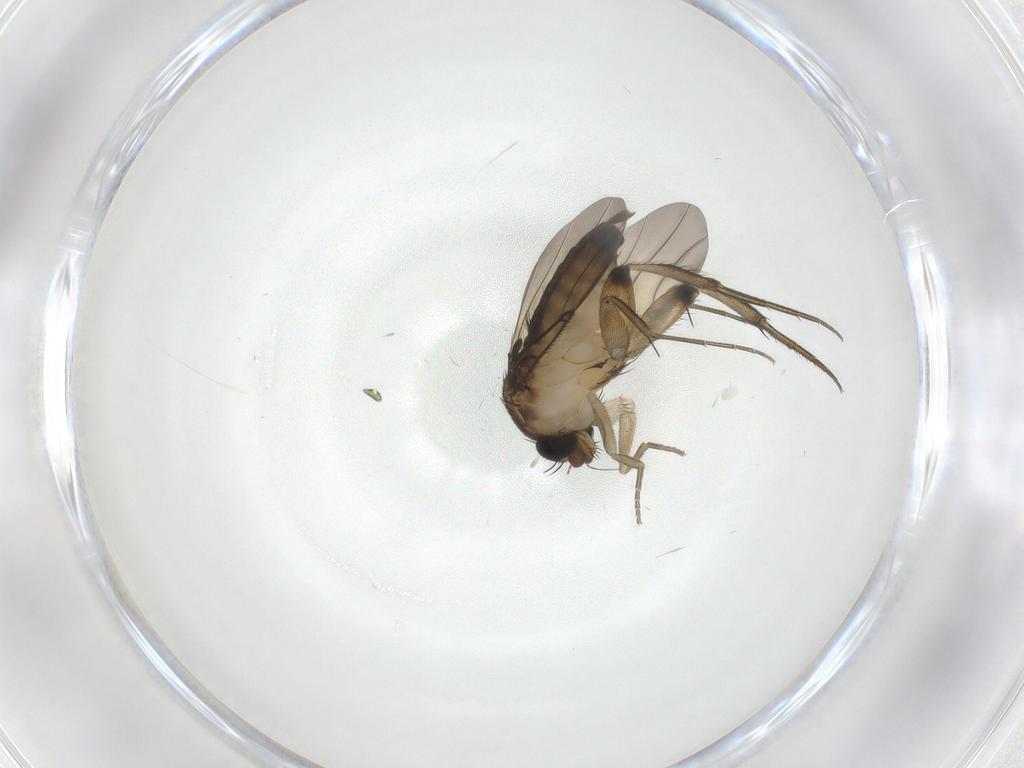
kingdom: Animalia
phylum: Arthropoda
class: Insecta
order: Diptera
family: Phoridae
